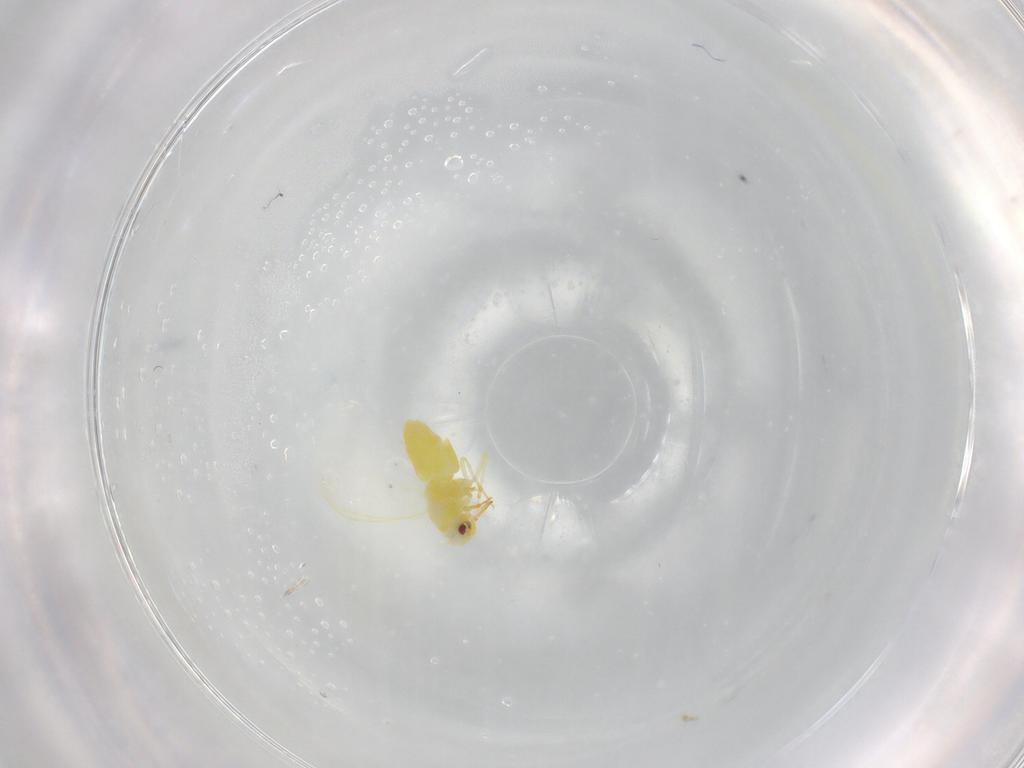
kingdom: Animalia
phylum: Arthropoda
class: Insecta
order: Hemiptera
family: Aleyrodidae
